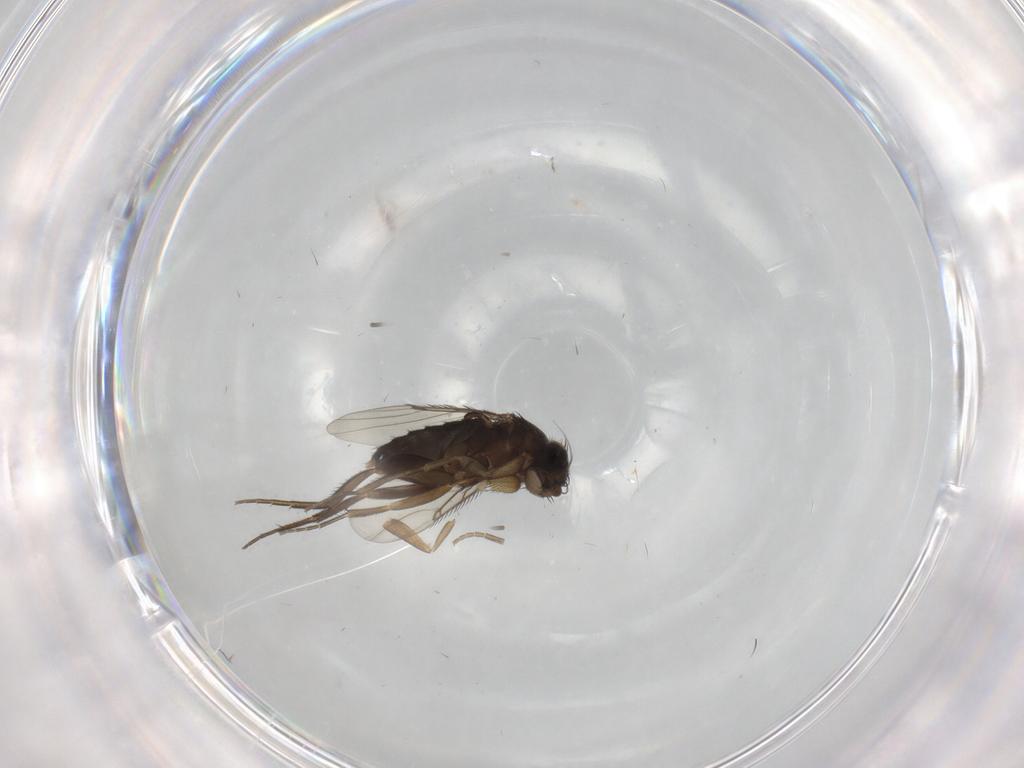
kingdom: Animalia
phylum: Arthropoda
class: Insecta
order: Diptera
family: Phoridae
